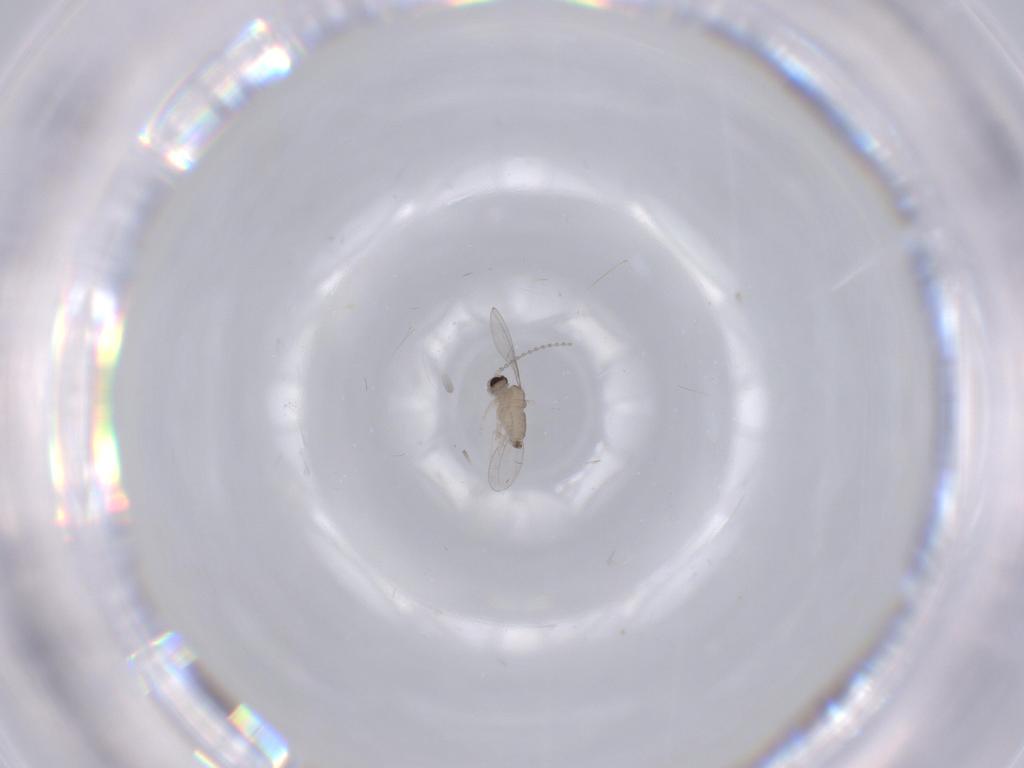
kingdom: Animalia
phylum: Arthropoda
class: Insecta
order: Diptera
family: Cecidomyiidae
